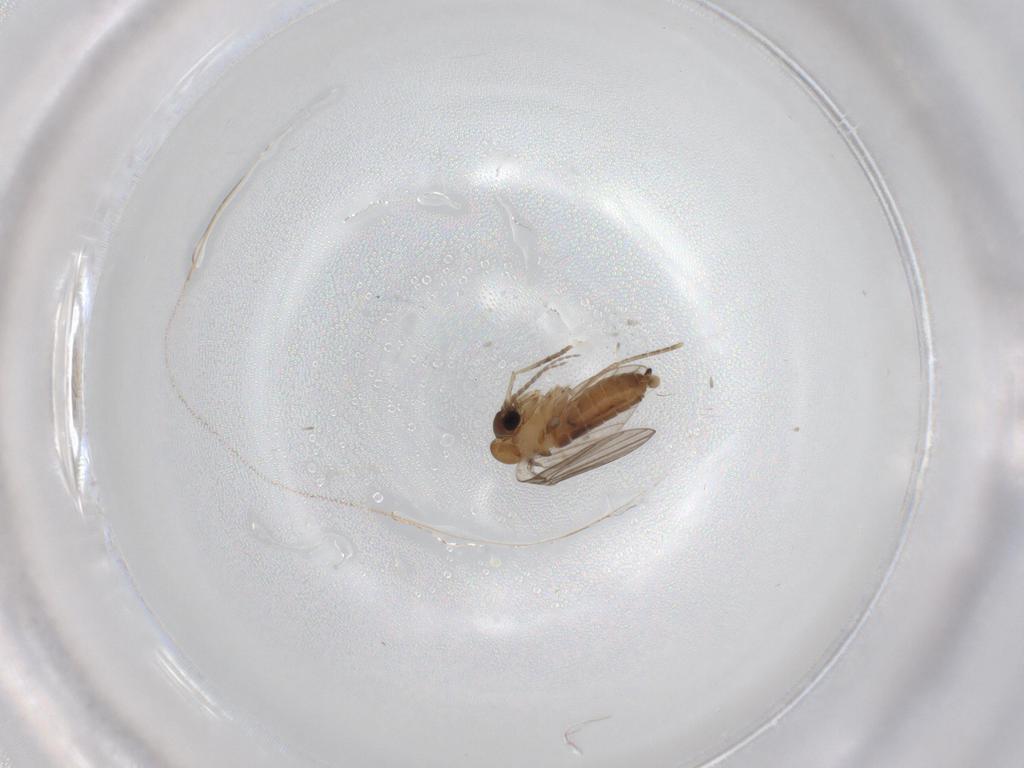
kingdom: Animalia
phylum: Arthropoda
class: Insecta
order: Diptera
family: Sciaridae
